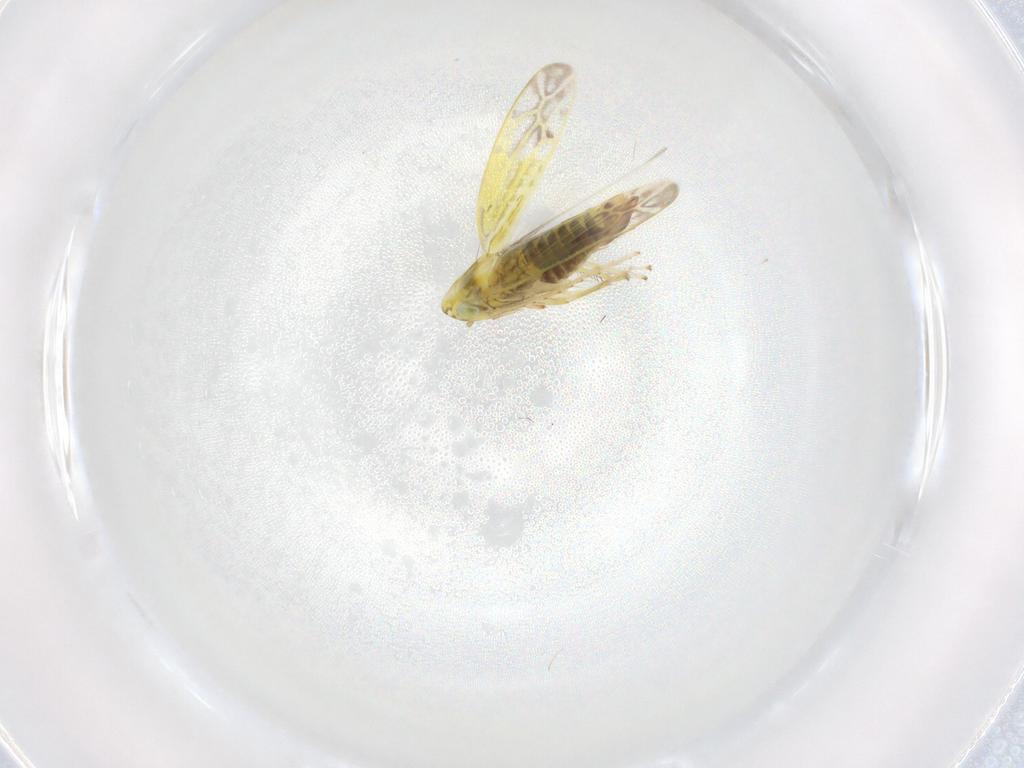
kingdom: Animalia
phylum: Arthropoda
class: Insecta
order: Hemiptera
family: Cicadellidae
